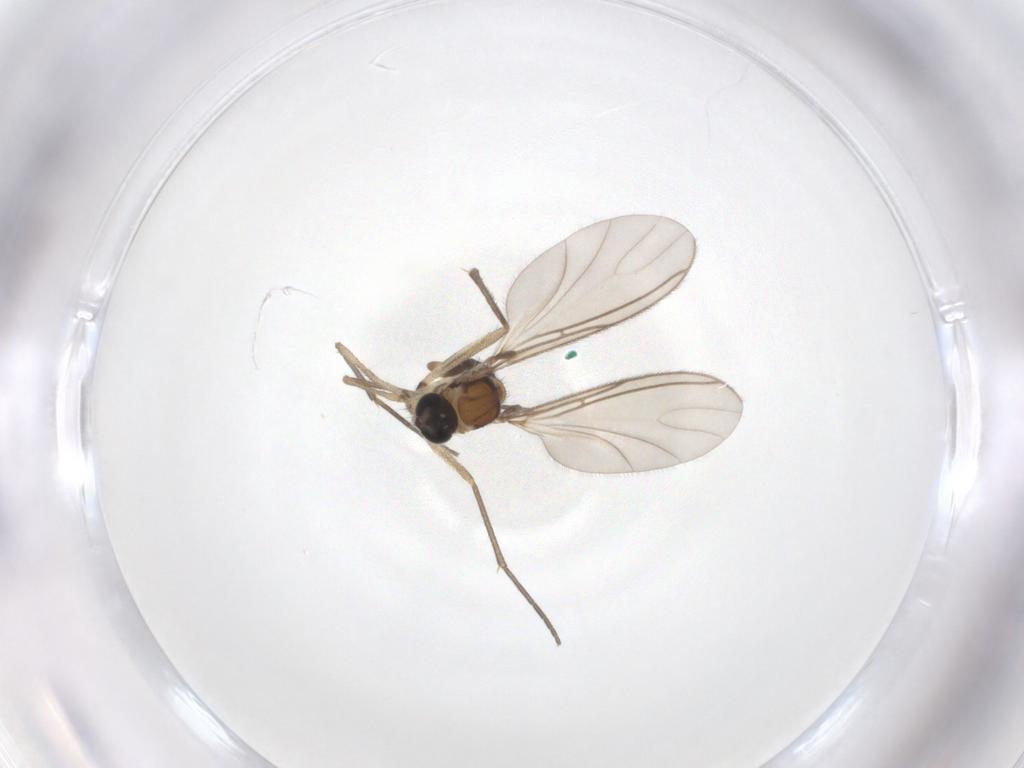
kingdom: Animalia
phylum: Arthropoda
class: Insecta
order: Diptera
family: Sciaridae
